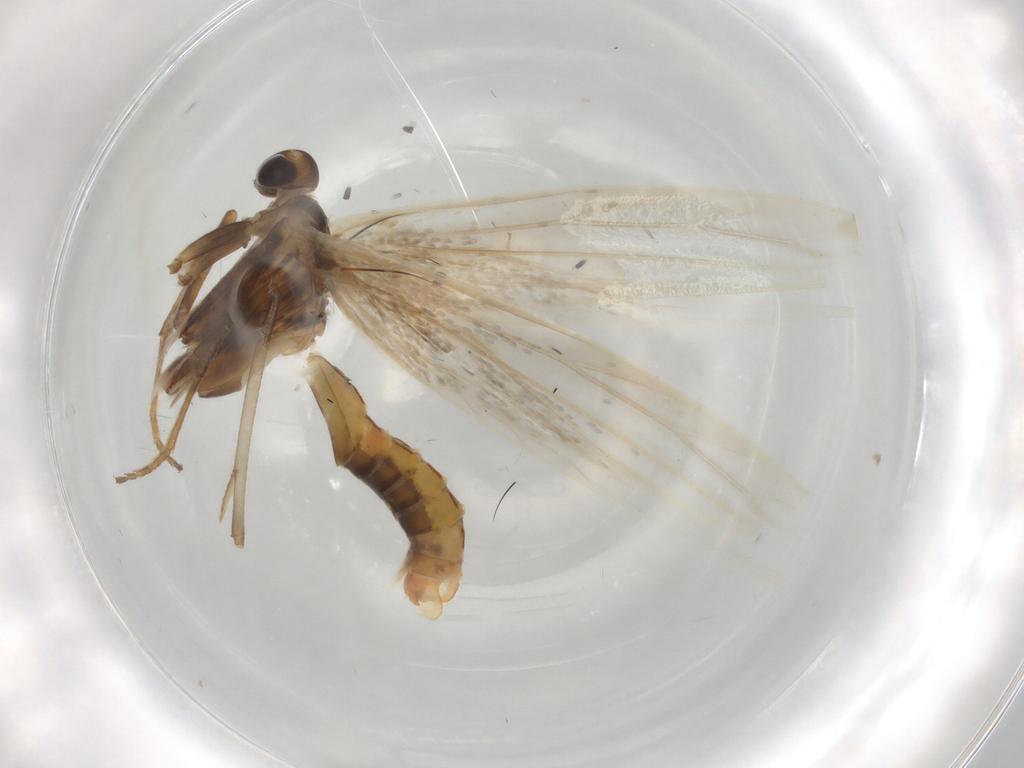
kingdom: Animalia
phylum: Arthropoda
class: Insecta
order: Lepidoptera
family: Coleophoridae
